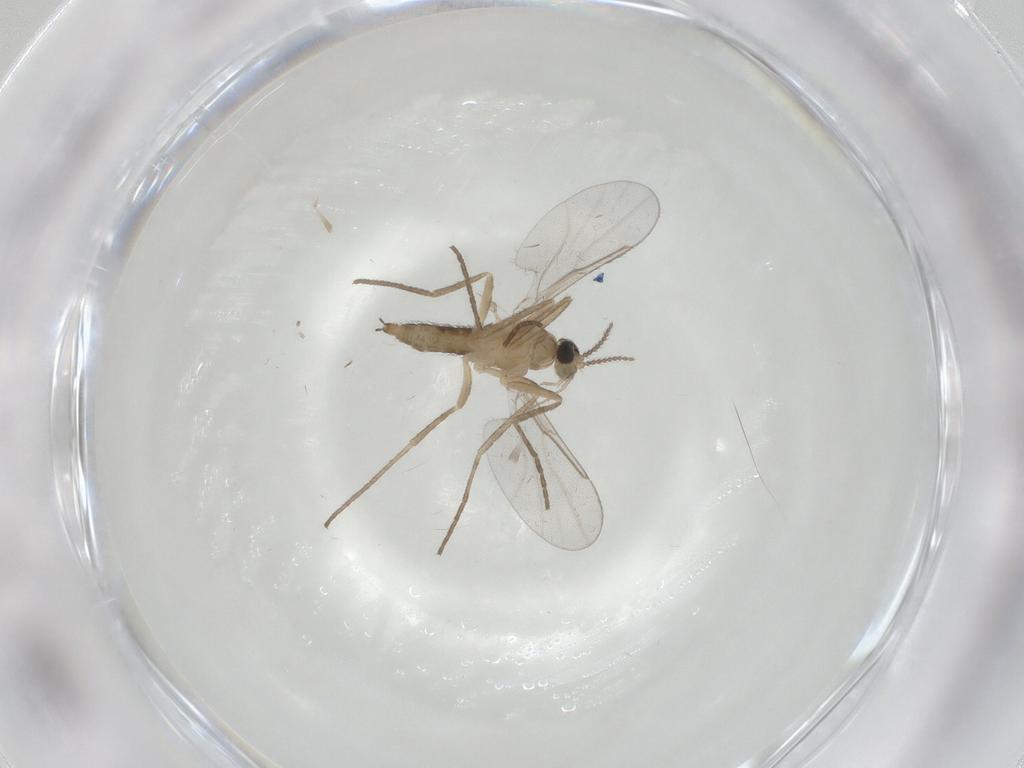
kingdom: Animalia
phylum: Arthropoda
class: Insecta
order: Diptera
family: Cecidomyiidae
